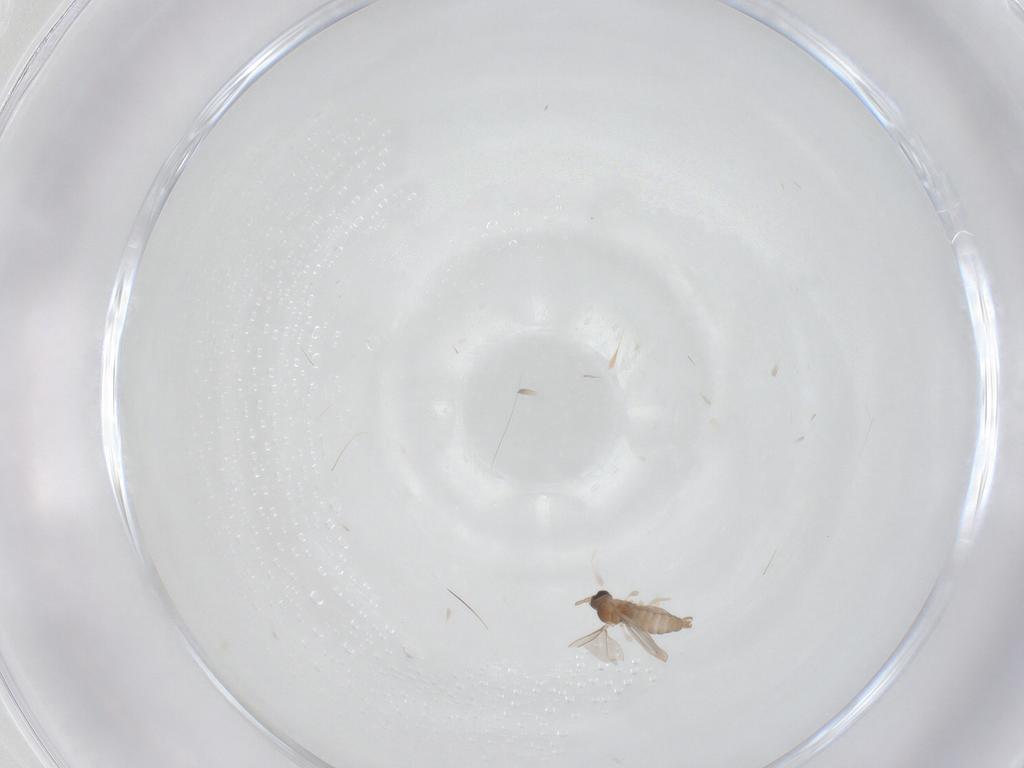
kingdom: Animalia
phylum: Arthropoda
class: Insecta
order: Diptera
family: Cecidomyiidae
